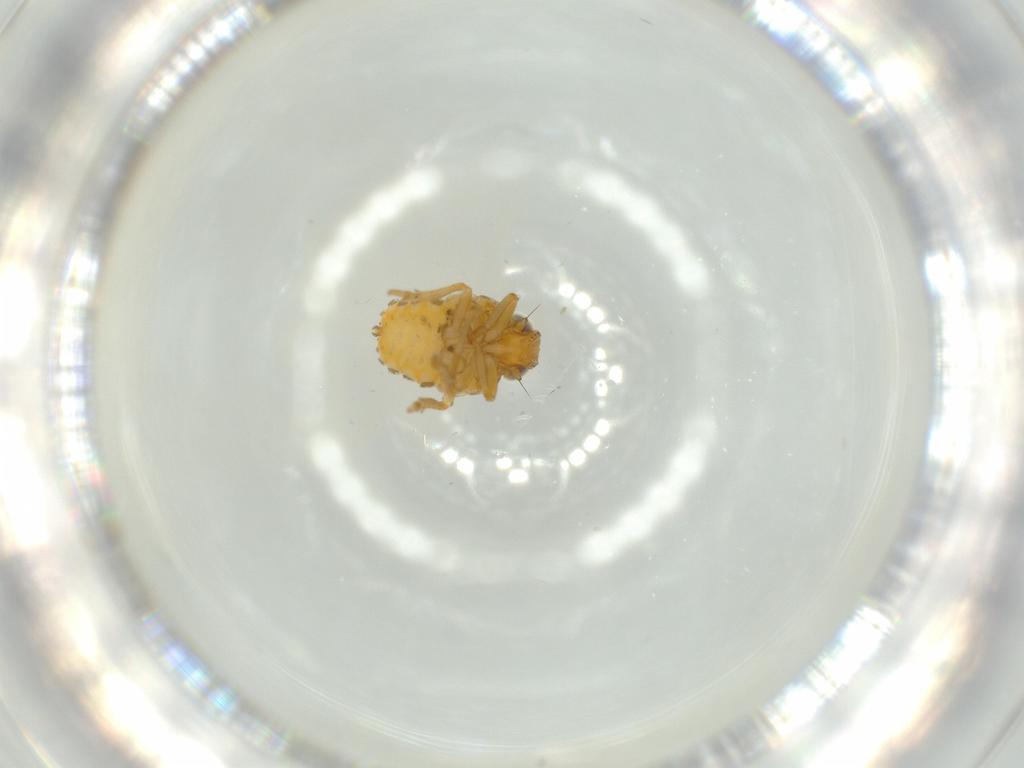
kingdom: Animalia
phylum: Arthropoda
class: Insecta
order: Hemiptera
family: Issidae
